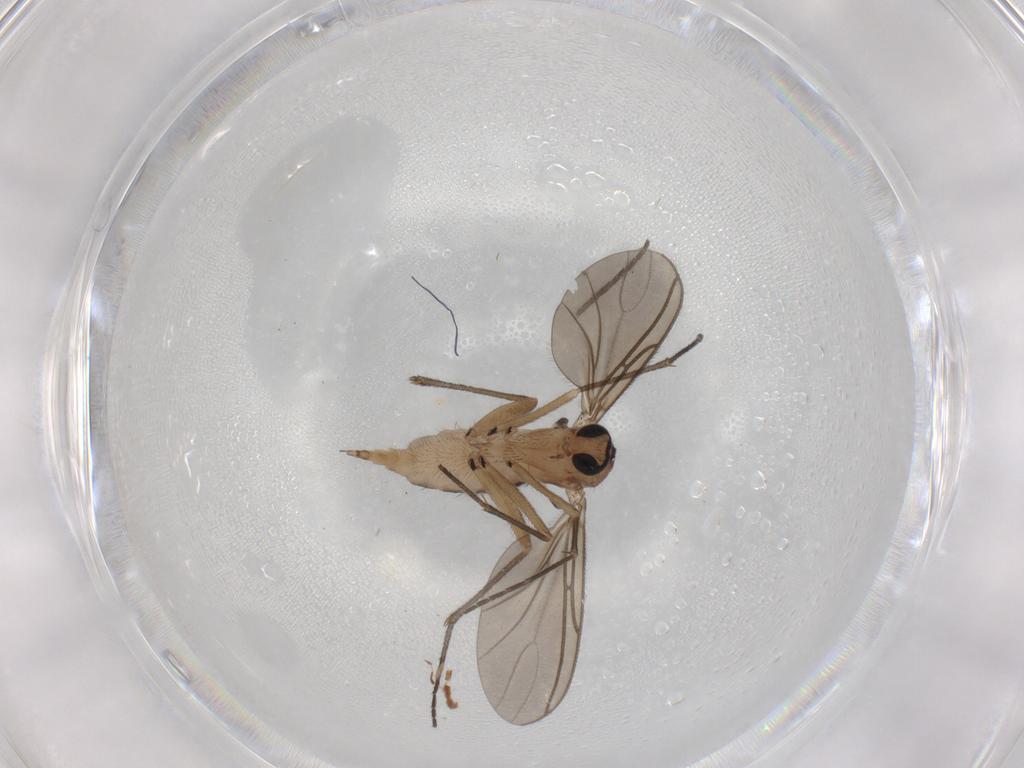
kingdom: Animalia
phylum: Arthropoda
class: Insecta
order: Diptera
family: Sciaridae
